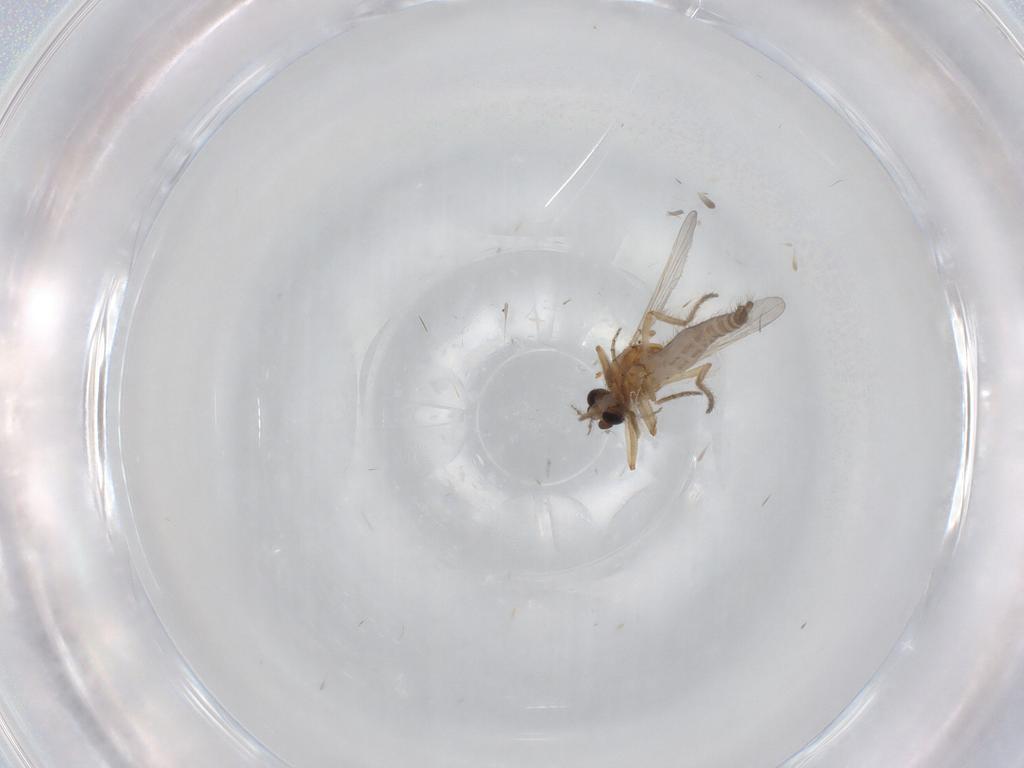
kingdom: Animalia
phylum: Arthropoda
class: Insecta
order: Diptera
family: Ceratopogonidae
